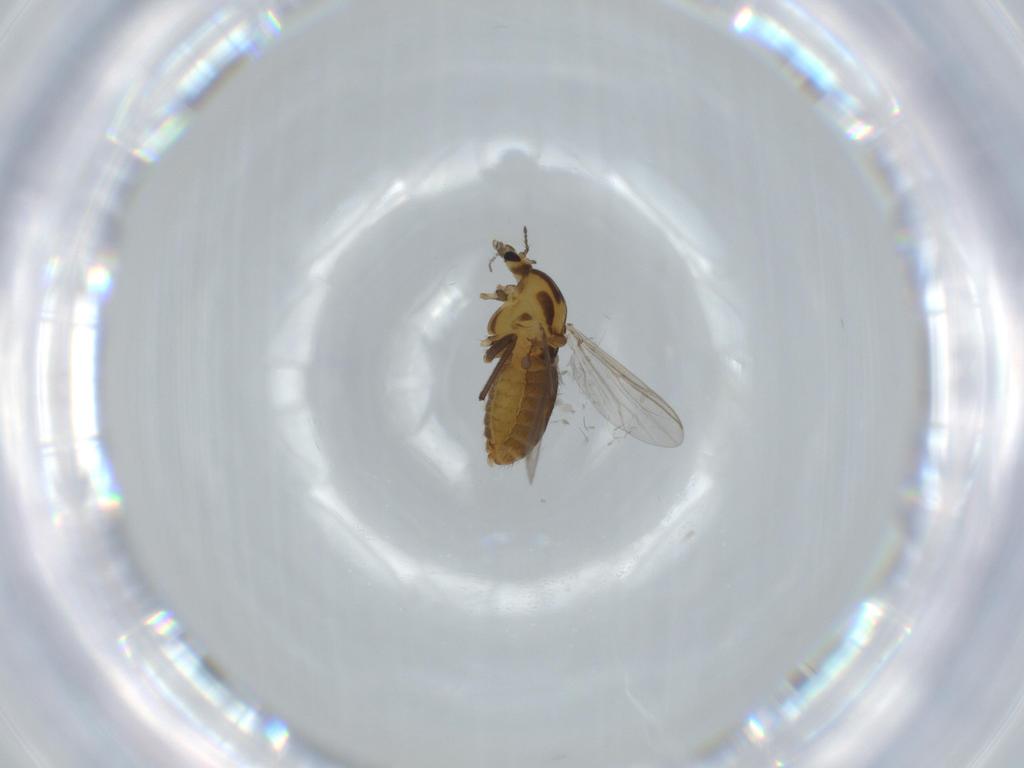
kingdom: Animalia
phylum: Arthropoda
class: Insecta
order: Diptera
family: Chironomidae
